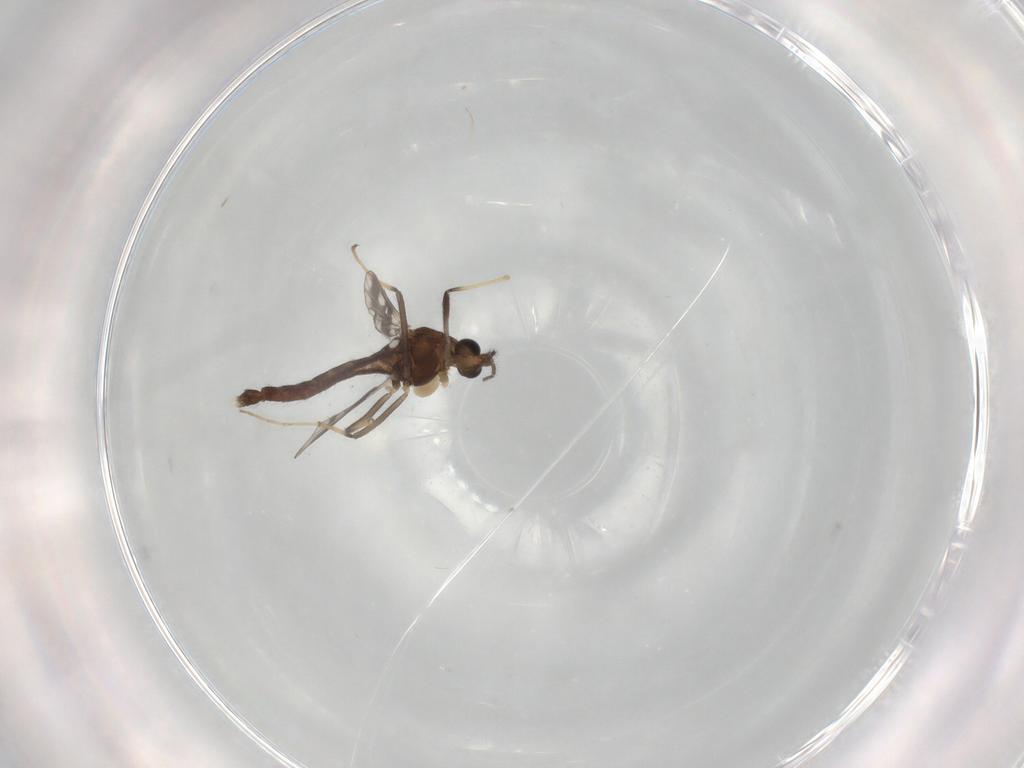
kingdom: Animalia
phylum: Arthropoda
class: Insecta
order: Diptera
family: Chironomidae
